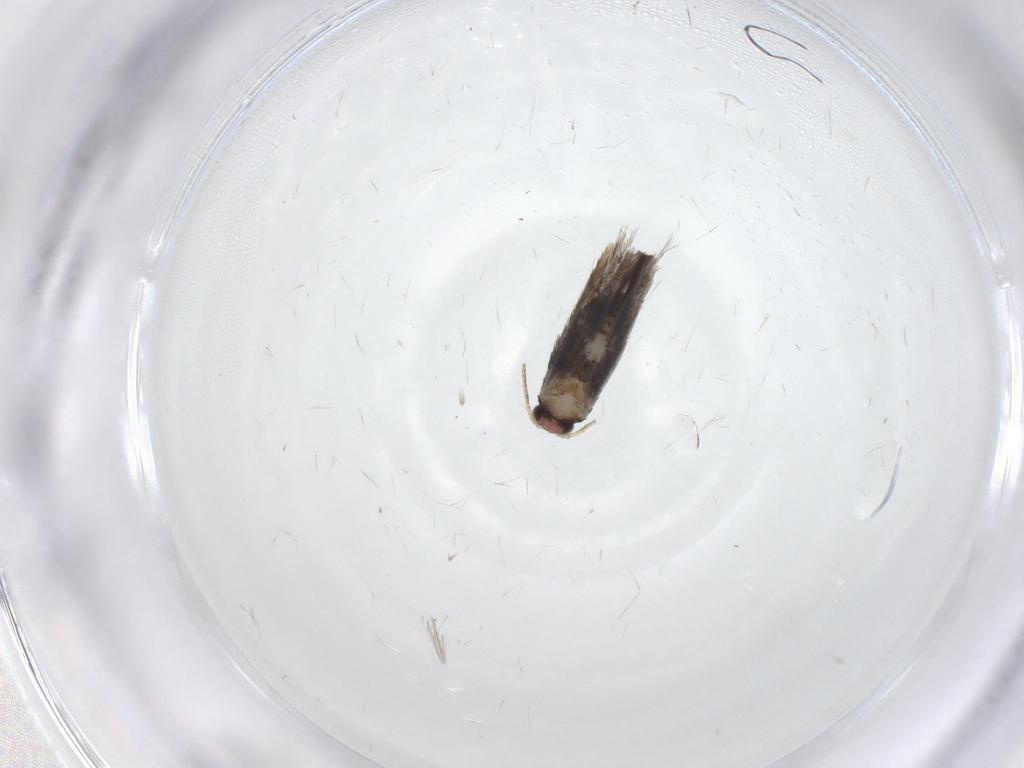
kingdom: Animalia
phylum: Arthropoda
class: Insecta
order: Lepidoptera
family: Gelechiidae
